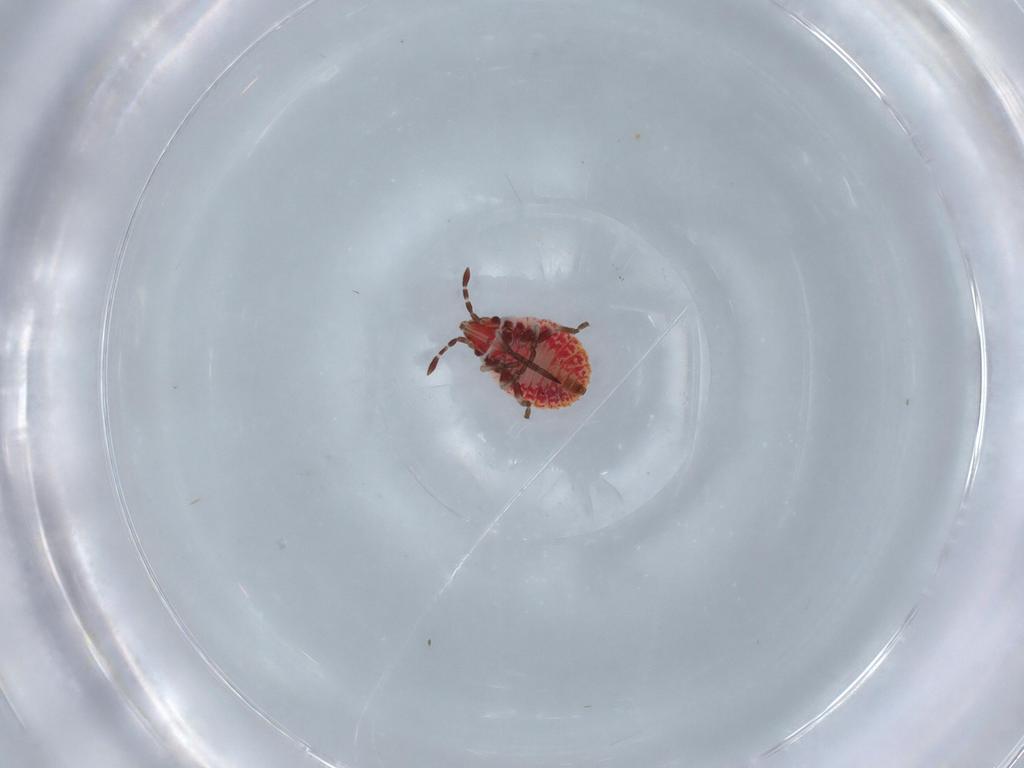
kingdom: Animalia
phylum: Arthropoda
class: Insecta
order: Hemiptera
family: Rhyparochromidae
